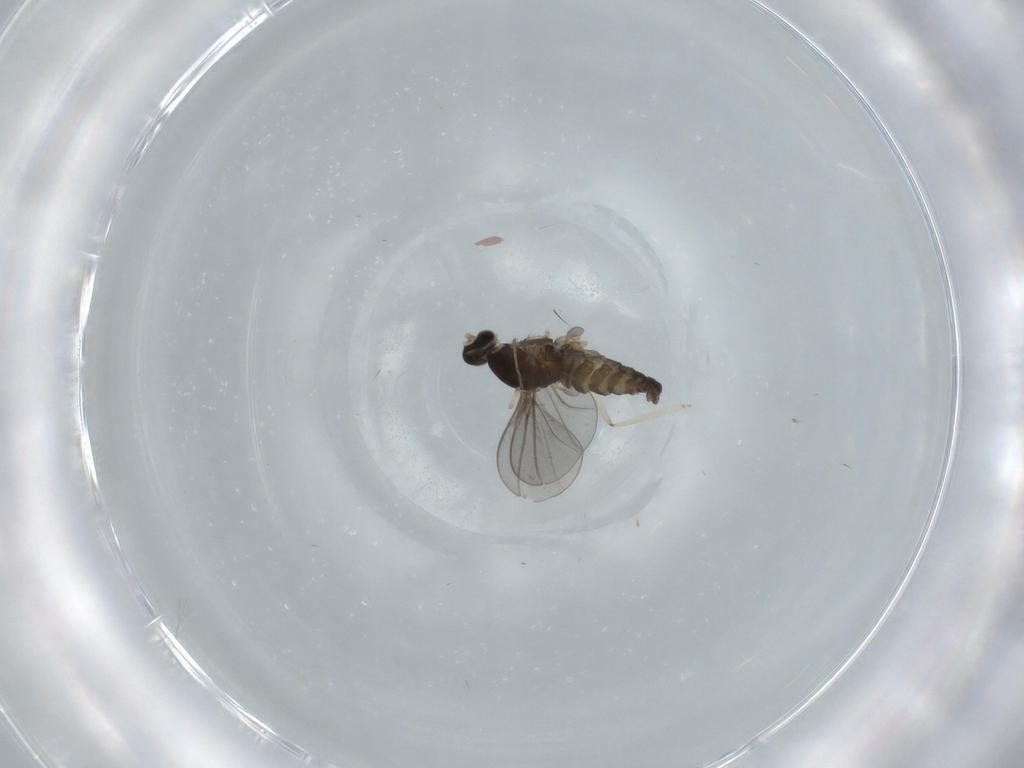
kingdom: Animalia
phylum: Arthropoda
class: Insecta
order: Diptera
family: Cecidomyiidae
